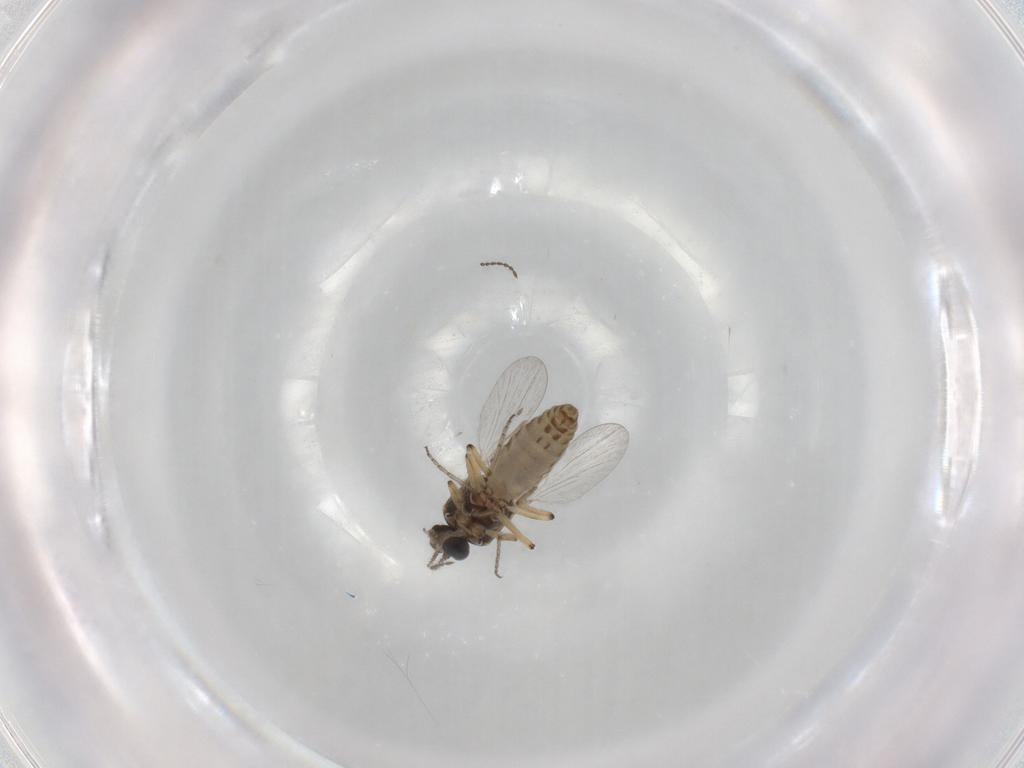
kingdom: Animalia
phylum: Arthropoda
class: Insecta
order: Diptera
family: Ceratopogonidae
